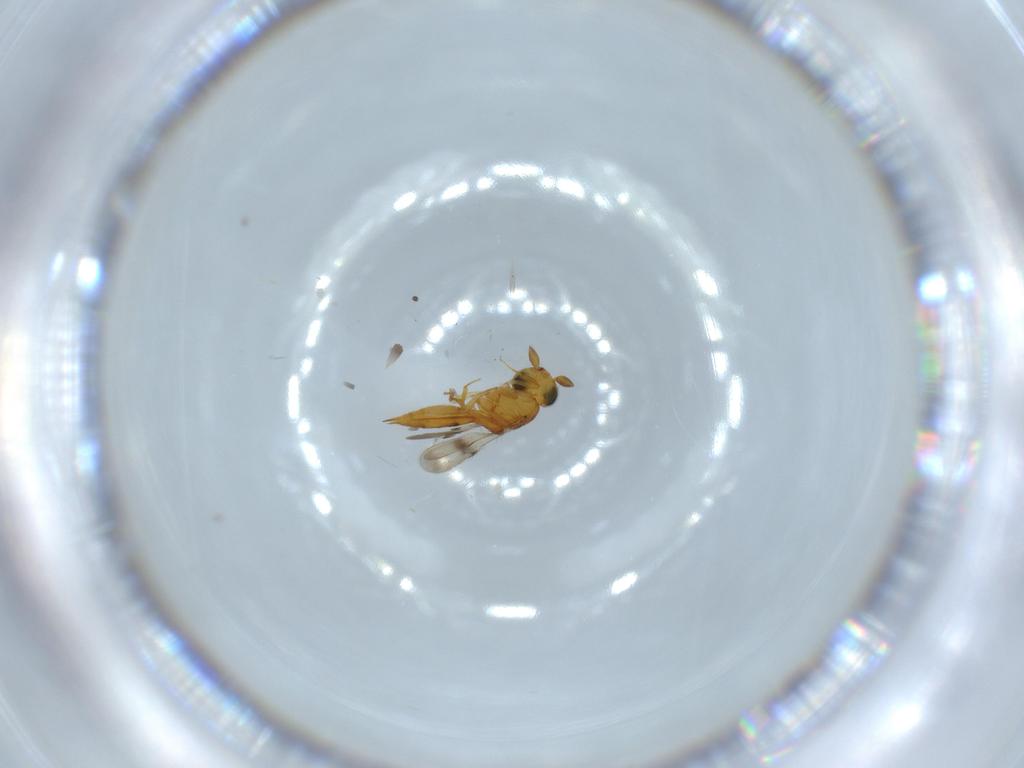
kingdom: Animalia
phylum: Arthropoda
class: Insecta
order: Hymenoptera
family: Scelionidae
